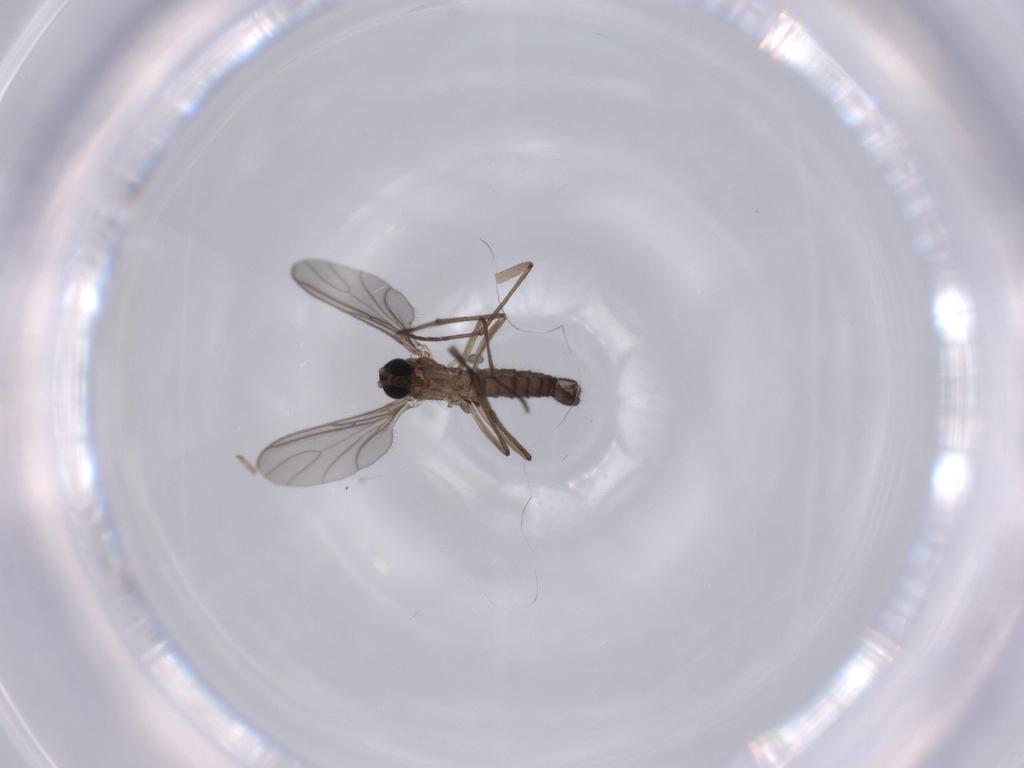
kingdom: Animalia
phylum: Arthropoda
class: Insecta
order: Diptera
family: Sciaridae
